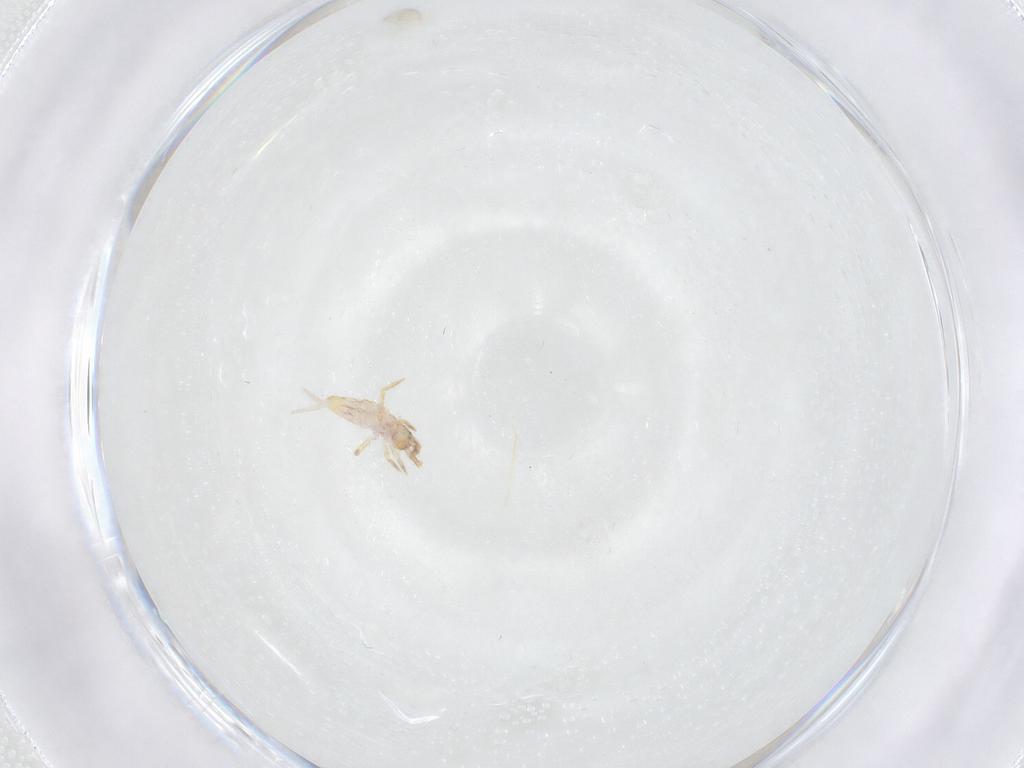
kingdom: Animalia
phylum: Arthropoda
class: Collembola
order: Entomobryomorpha
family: Entomobryidae
